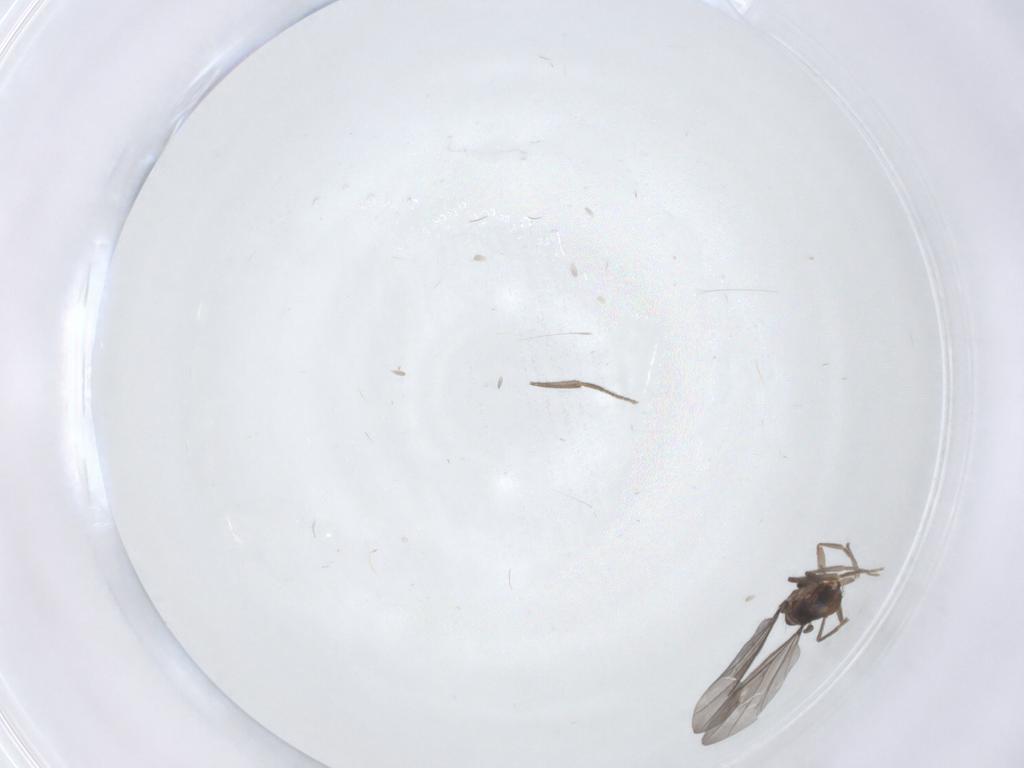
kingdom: Animalia
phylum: Arthropoda
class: Insecta
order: Diptera
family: Phoridae
